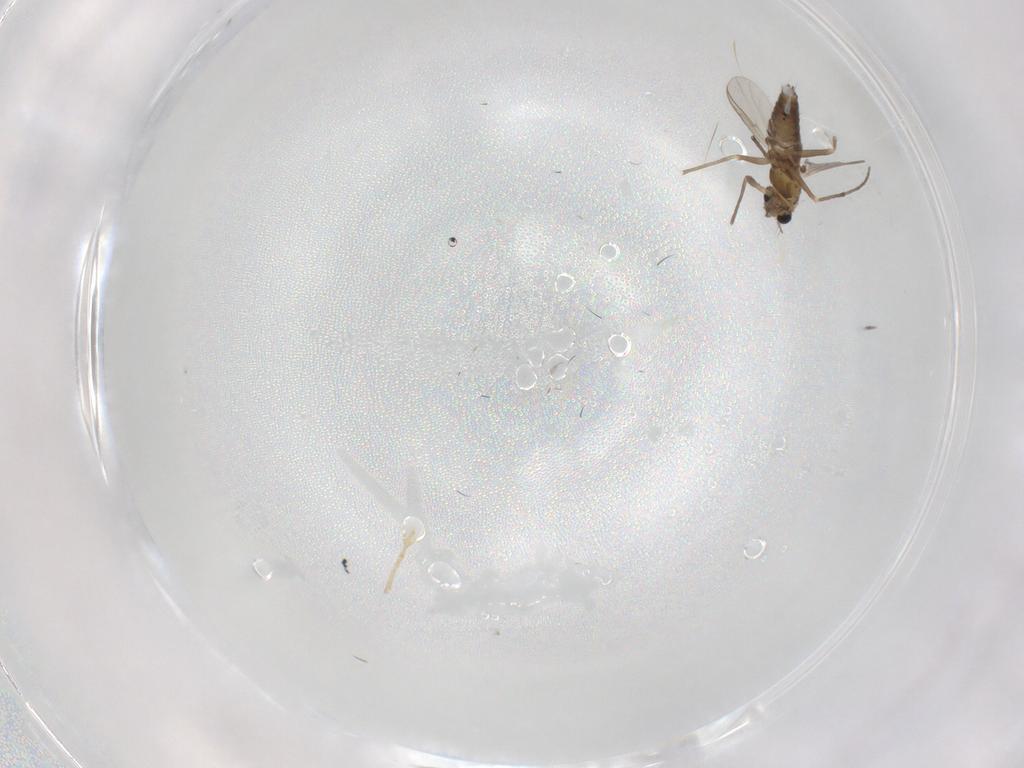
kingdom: Animalia
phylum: Arthropoda
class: Insecta
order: Diptera
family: Chironomidae
